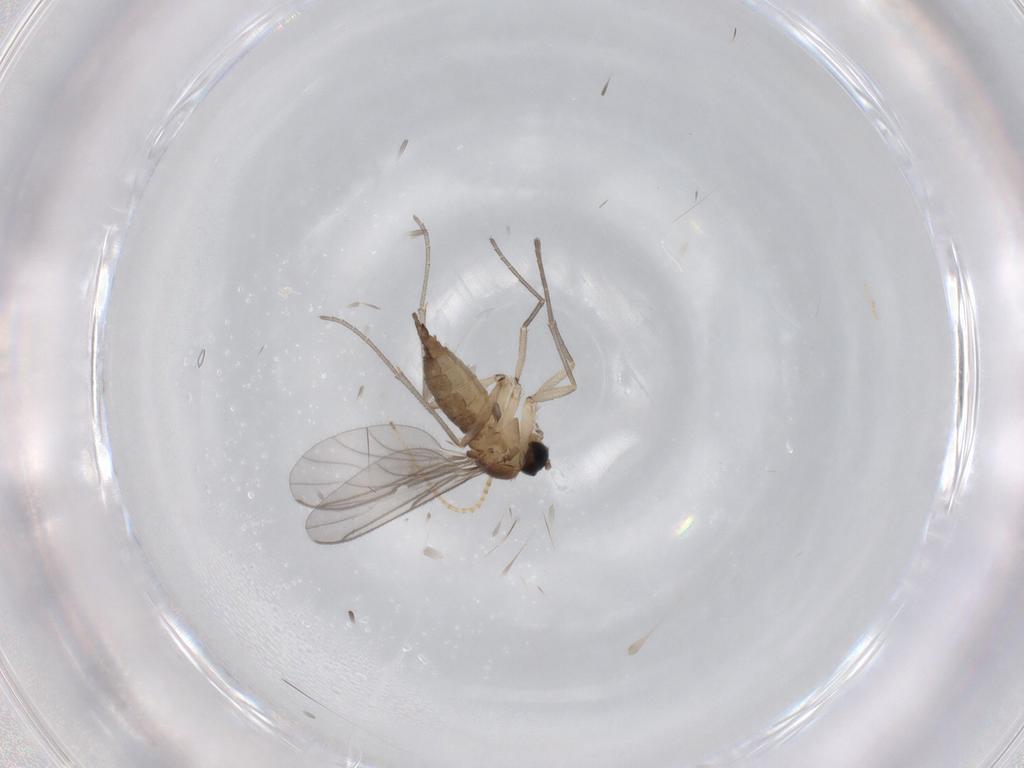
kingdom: Animalia
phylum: Arthropoda
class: Insecta
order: Diptera
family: Sciaridae
